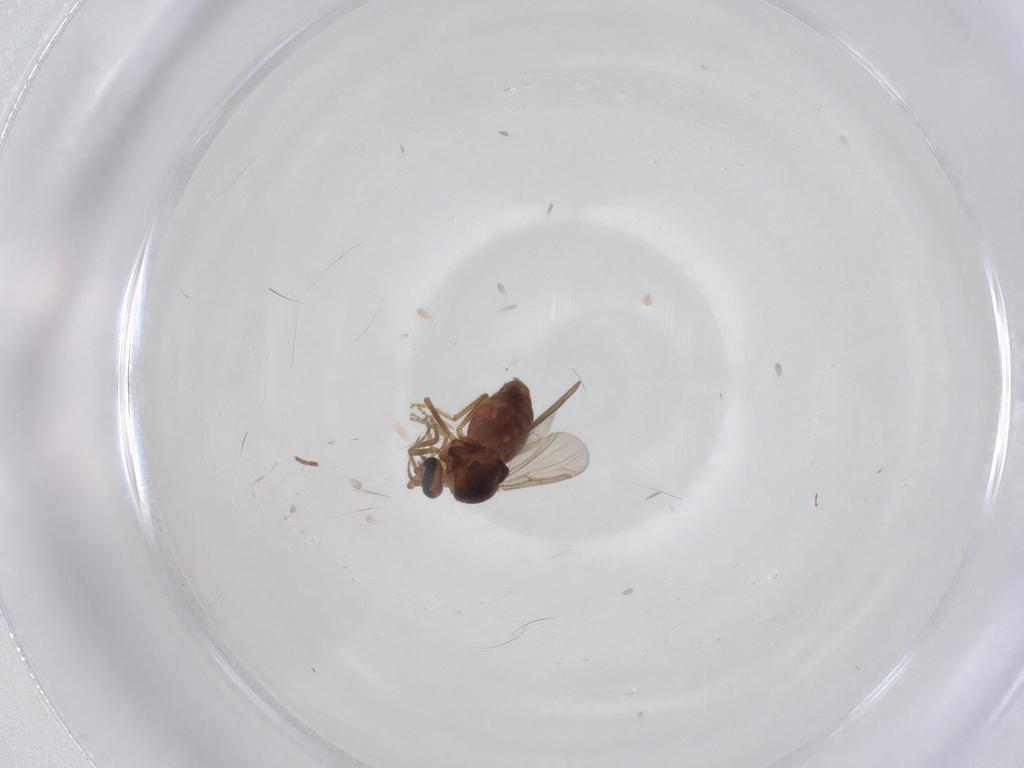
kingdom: Animalia
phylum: Arthropoda
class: Insecta
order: Diptera
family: Ceratopogonidae
